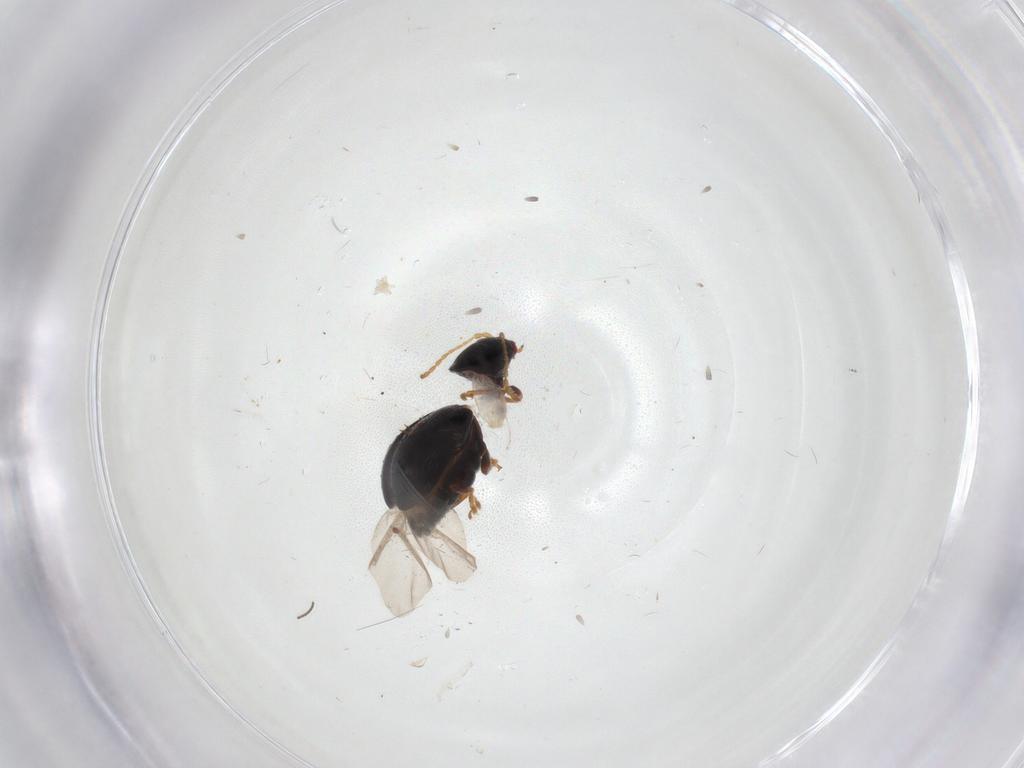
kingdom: Animalia
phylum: Arthropoda
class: Insecta
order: Coleoptera
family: Chrysomelidae
